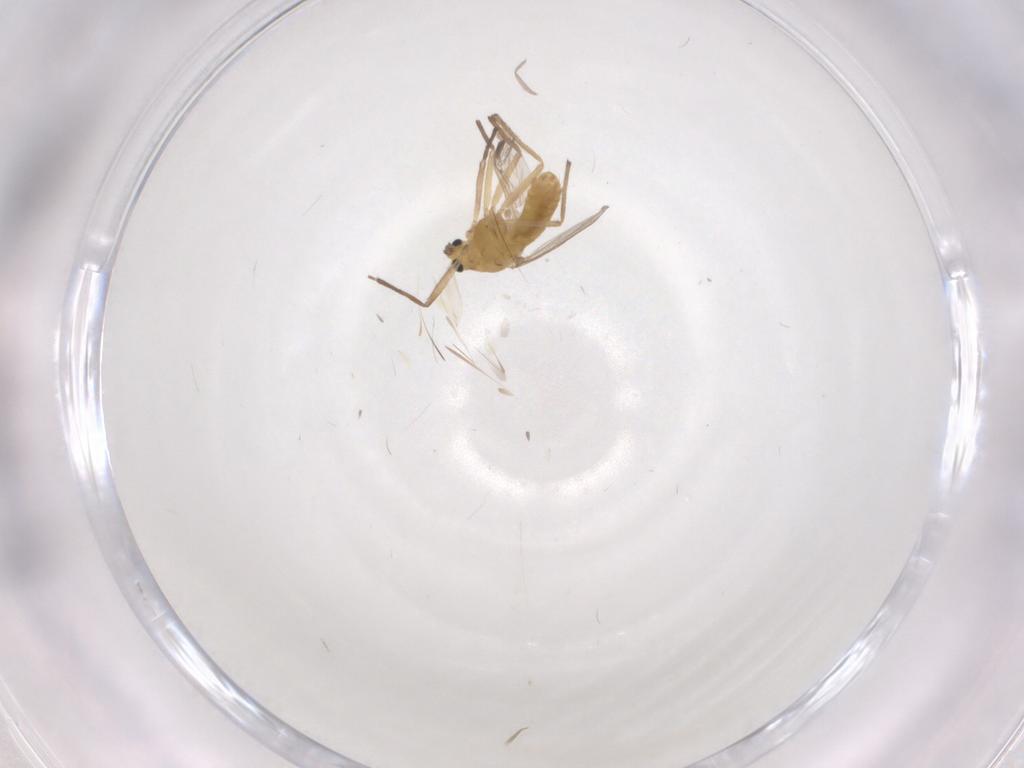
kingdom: Animalia
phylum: Arthropoda
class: Insecta
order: Diptera
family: Chironomidae
